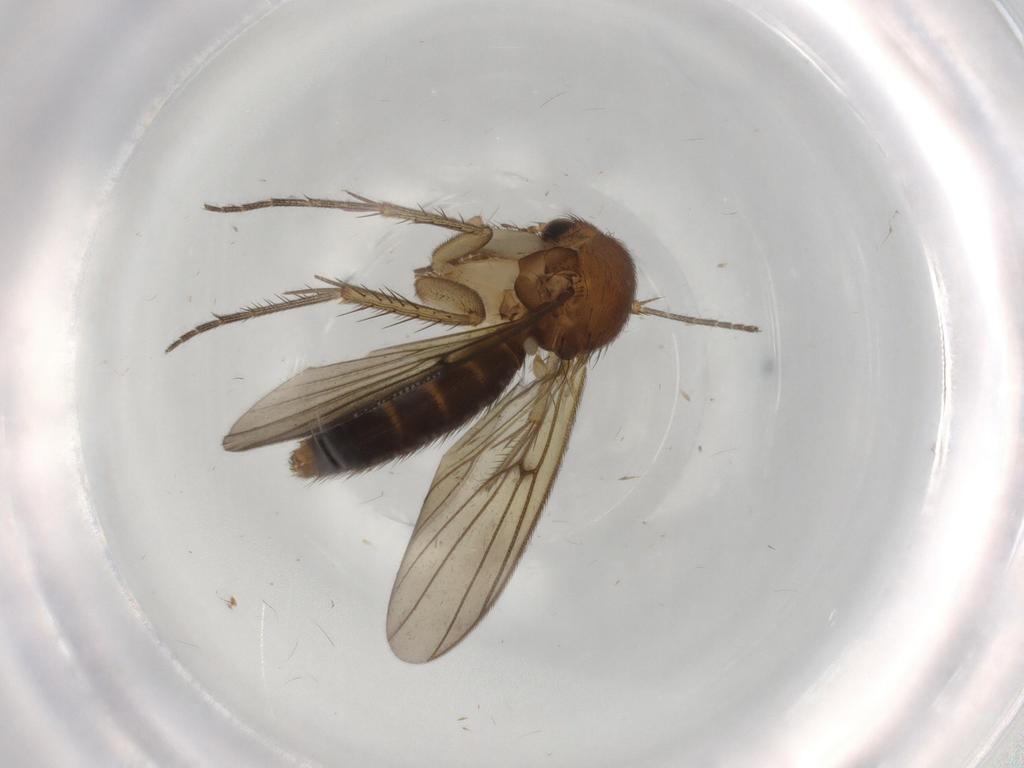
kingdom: Animalia
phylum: Arthropoda
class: Insecta
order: Diptera
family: Mycetophilidae
